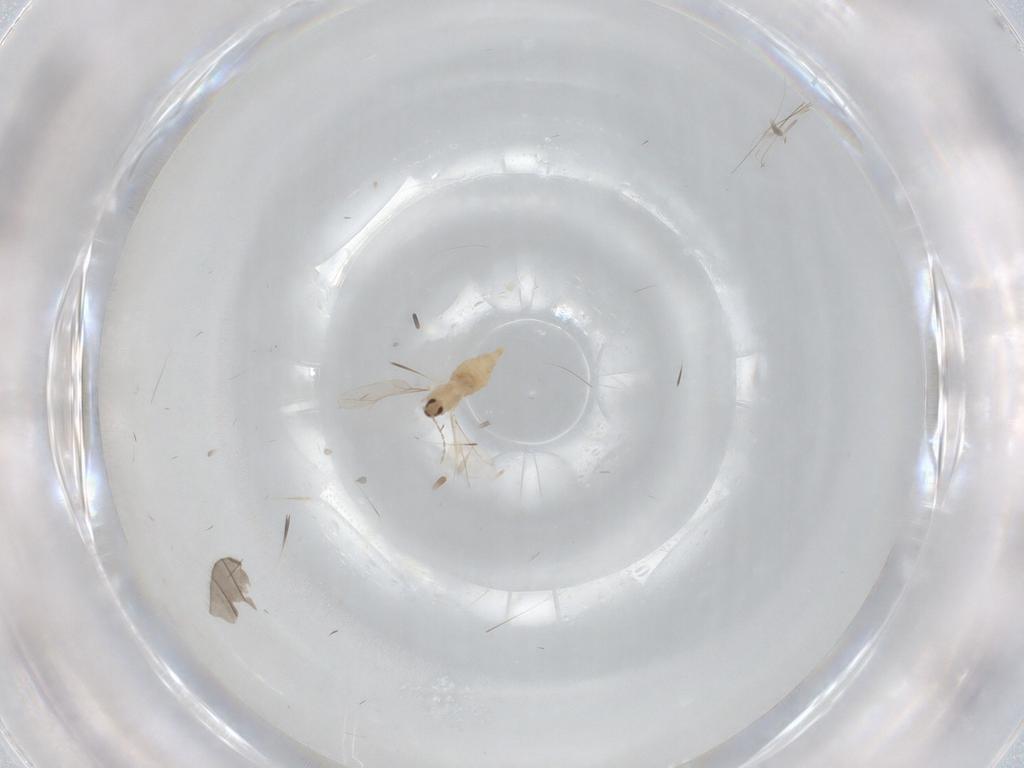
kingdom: Animalia
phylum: Arthropoda
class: Insecta
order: Diptera
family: Cecidomyiidae
